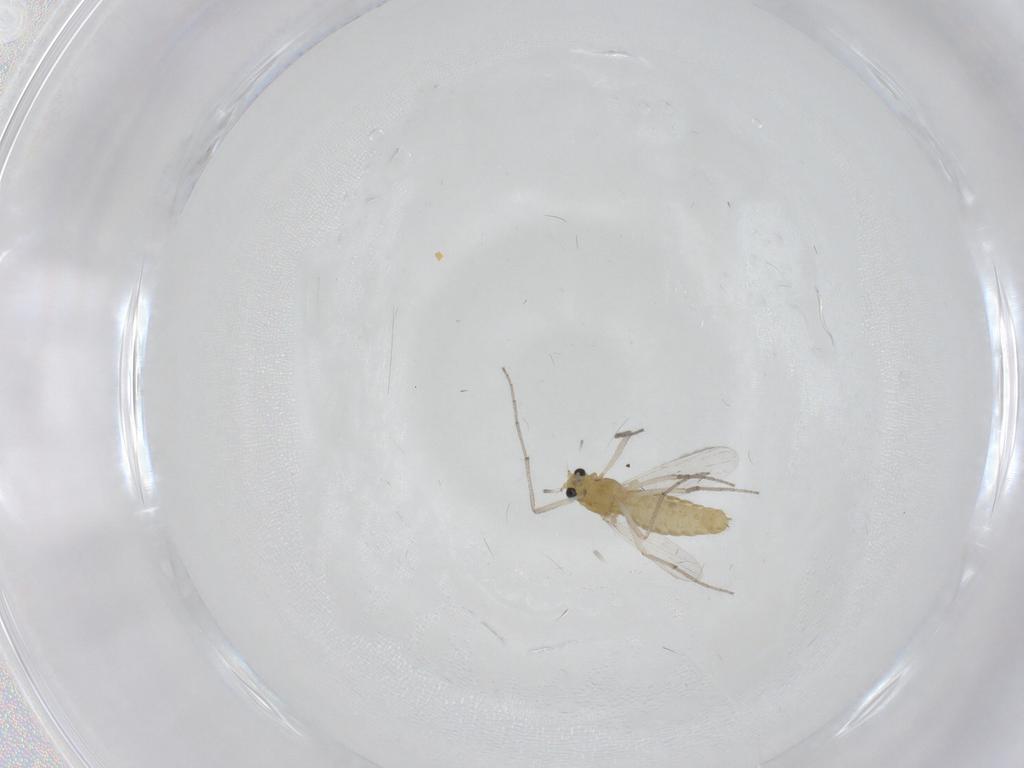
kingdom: Animalia
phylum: Arthropoda
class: Insecta
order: Diptera
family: Chironomidae
